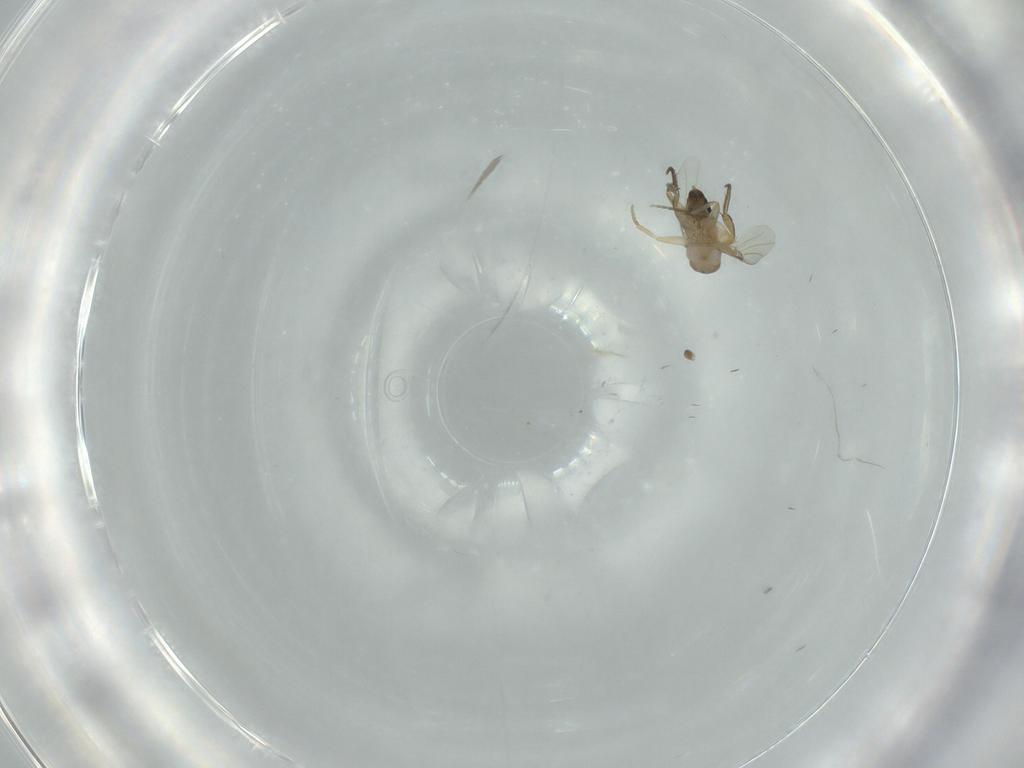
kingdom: Animalia
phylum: Arthropoda
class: Insecta
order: Diptera
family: Phoridae
